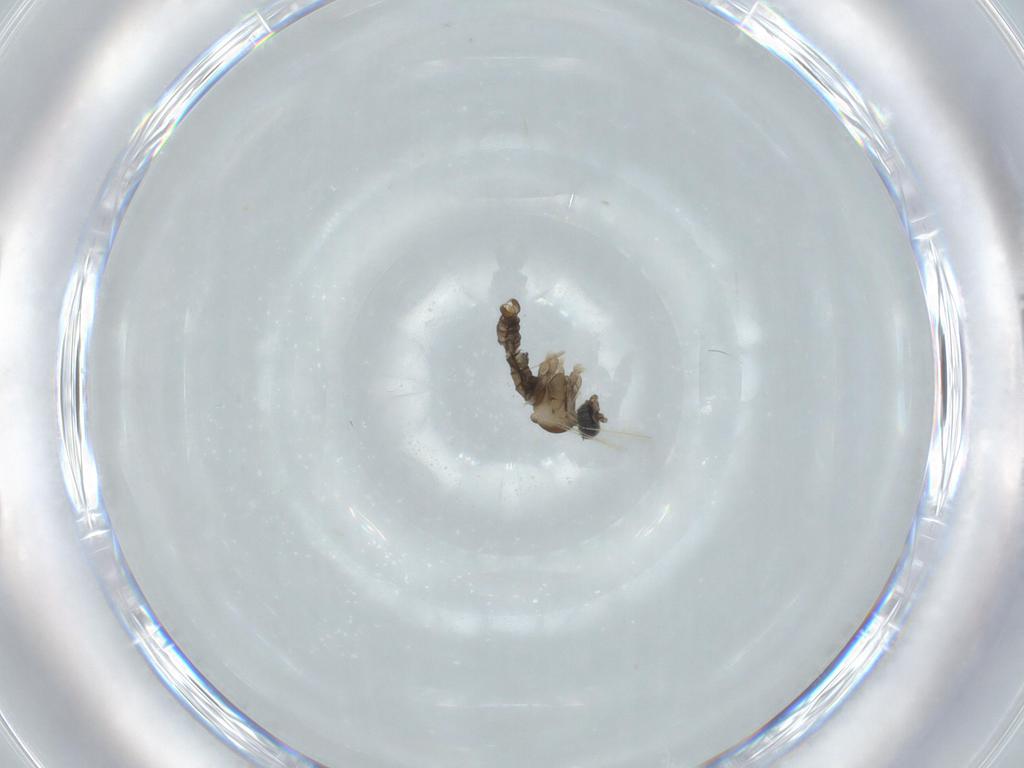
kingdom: Animalia
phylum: Arthropoda
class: Insecta
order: Diptera
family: Cecidomyiidae
